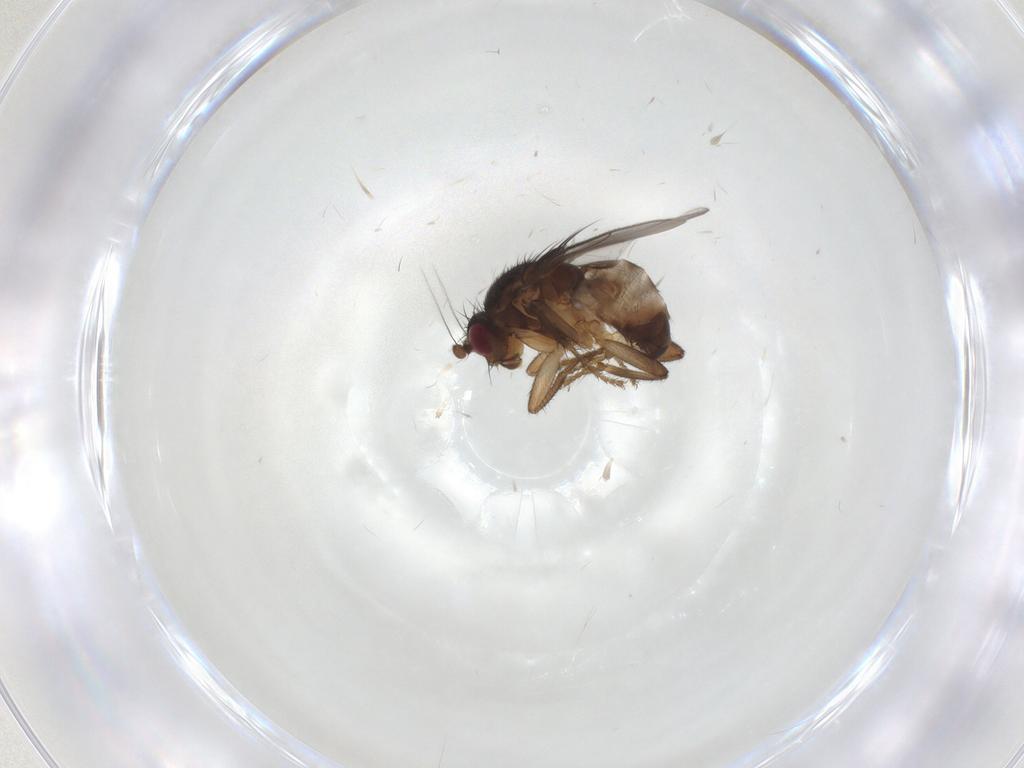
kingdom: Animalia
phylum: Arthropoda
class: Insecta
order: Diptera
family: Sphaeroceridae
